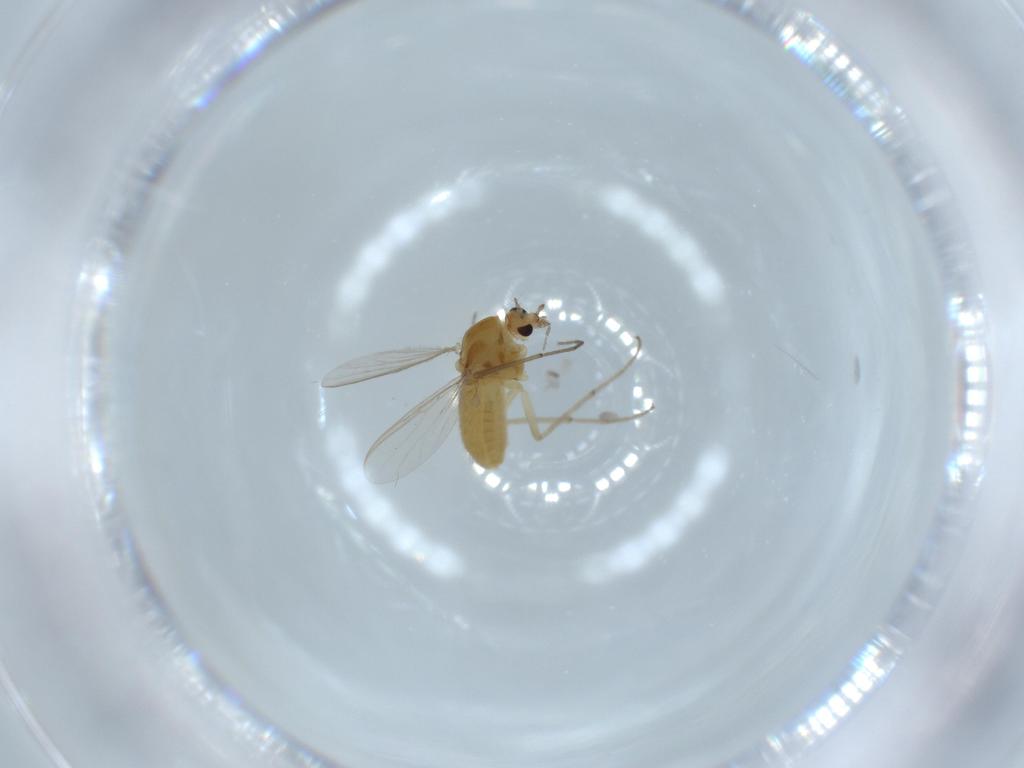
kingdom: Animalia
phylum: Arthropoda
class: Insecta
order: Diptera
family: Chironomidae
